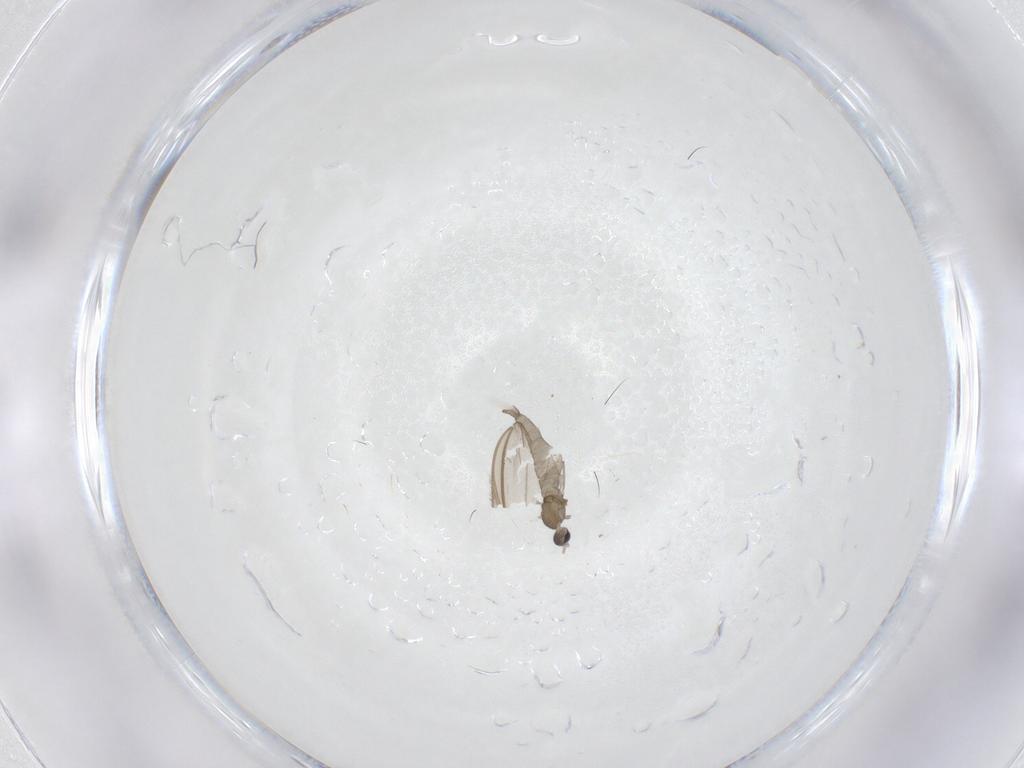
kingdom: Animalia
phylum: Arthropoda
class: Insecta
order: Diptera
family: Chironomidae
